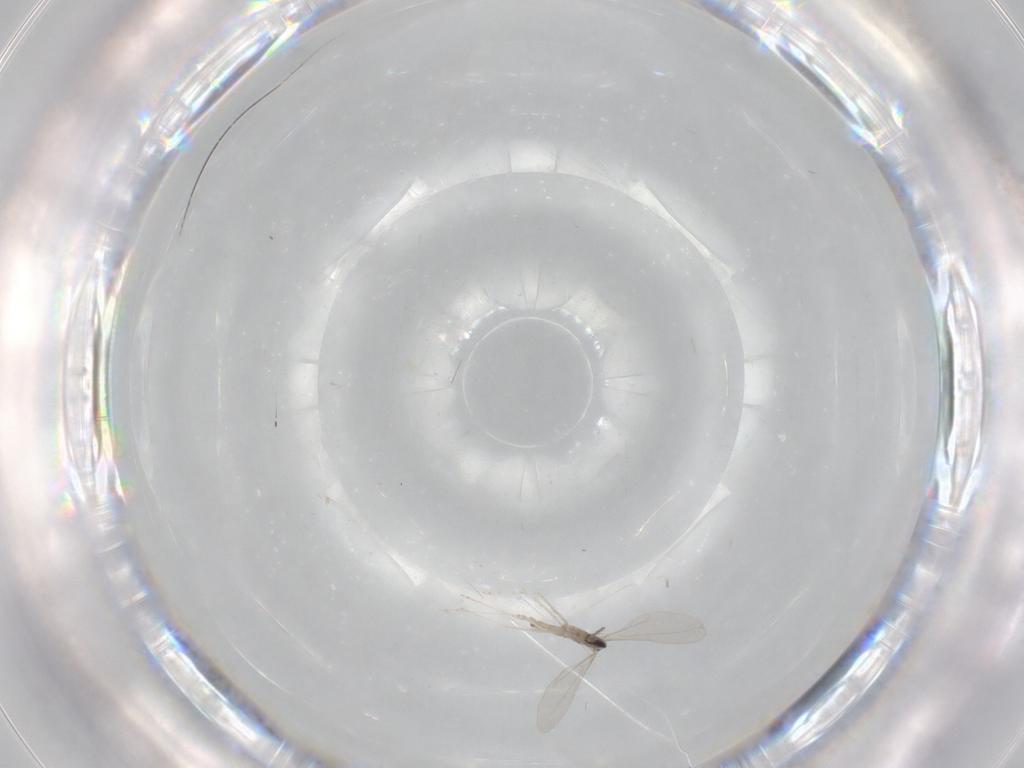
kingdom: Animalia
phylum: Arthropoda
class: Insecta
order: Diptera
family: Cecidomyiidae
